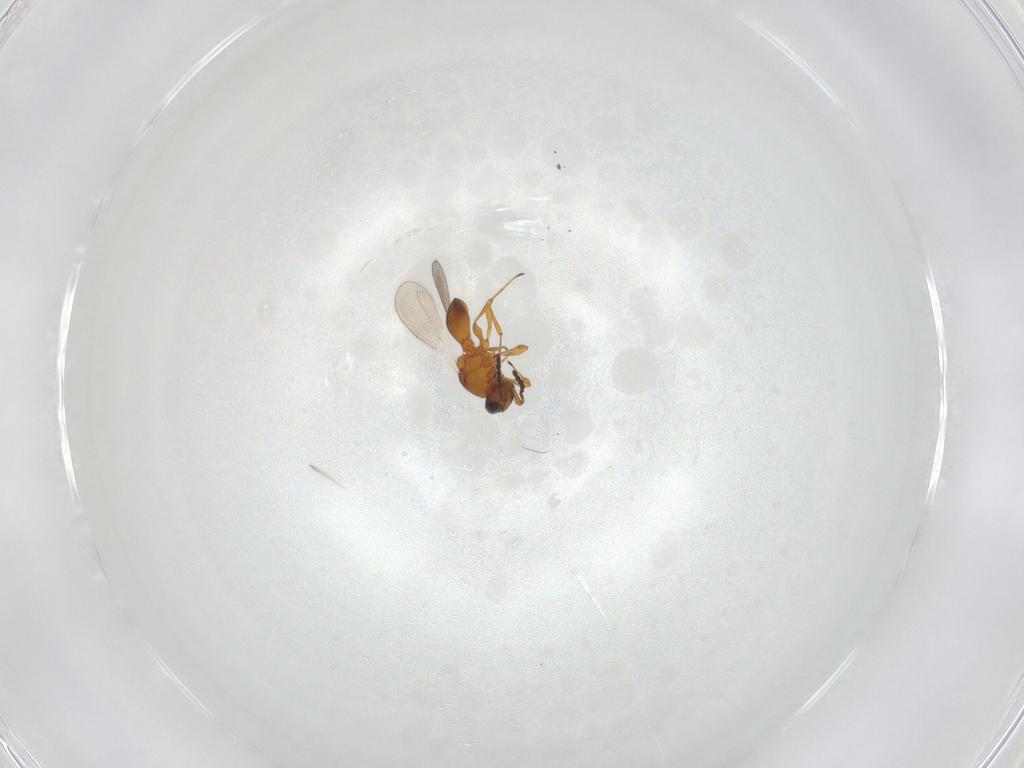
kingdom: Animalia
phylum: Arthropoda
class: Insecta
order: Hymenoptera
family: Platygastridae
